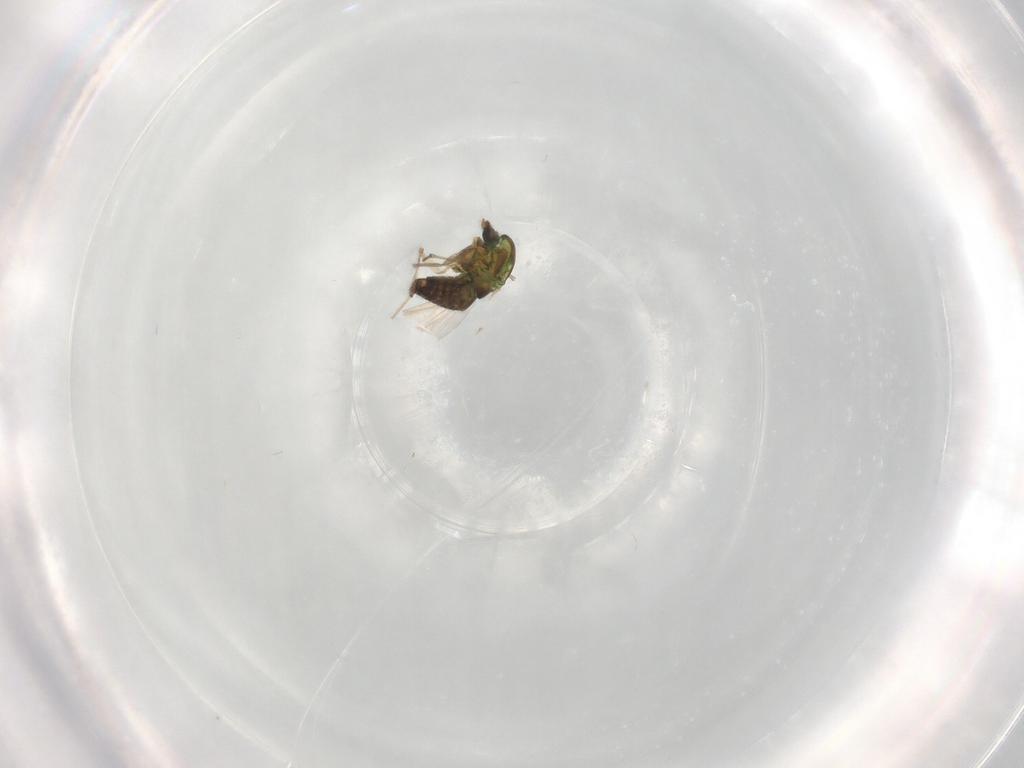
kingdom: Animalia
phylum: Arthropoda
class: Insecta
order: Diptera
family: Chironomidae
